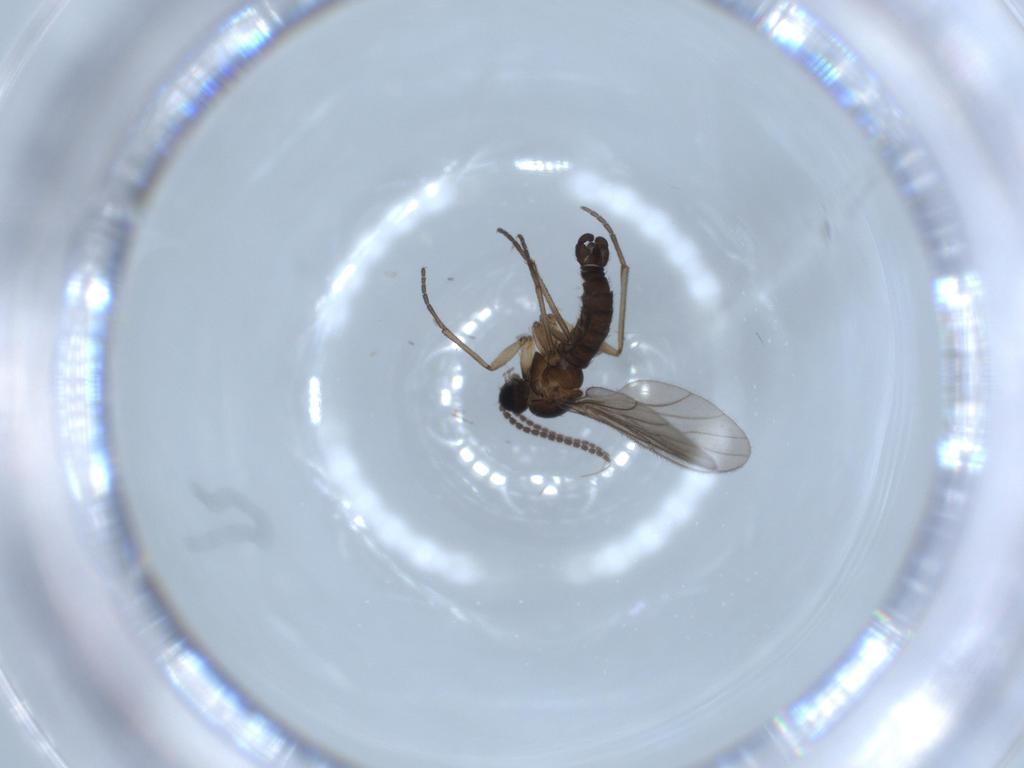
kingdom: Animalia
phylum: Arthropoda
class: Insecta
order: Diptera
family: Sciaridae
